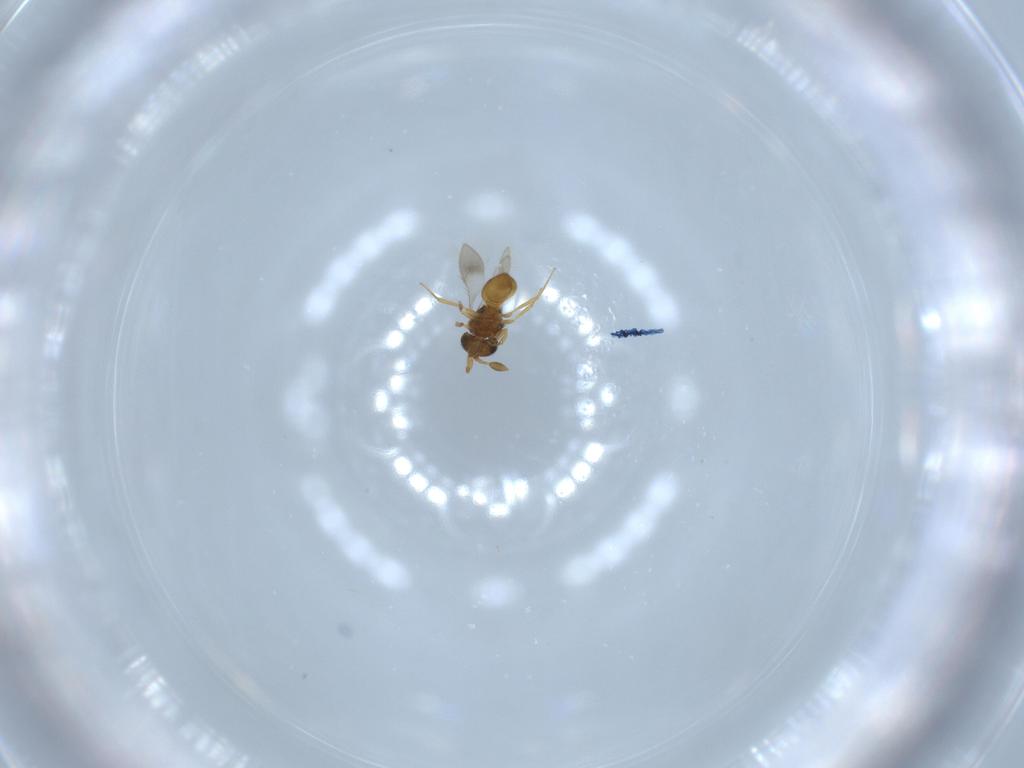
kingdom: Animalia
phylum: Arthropoda
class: Insecta
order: Hymenoptera
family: Scelionidae
